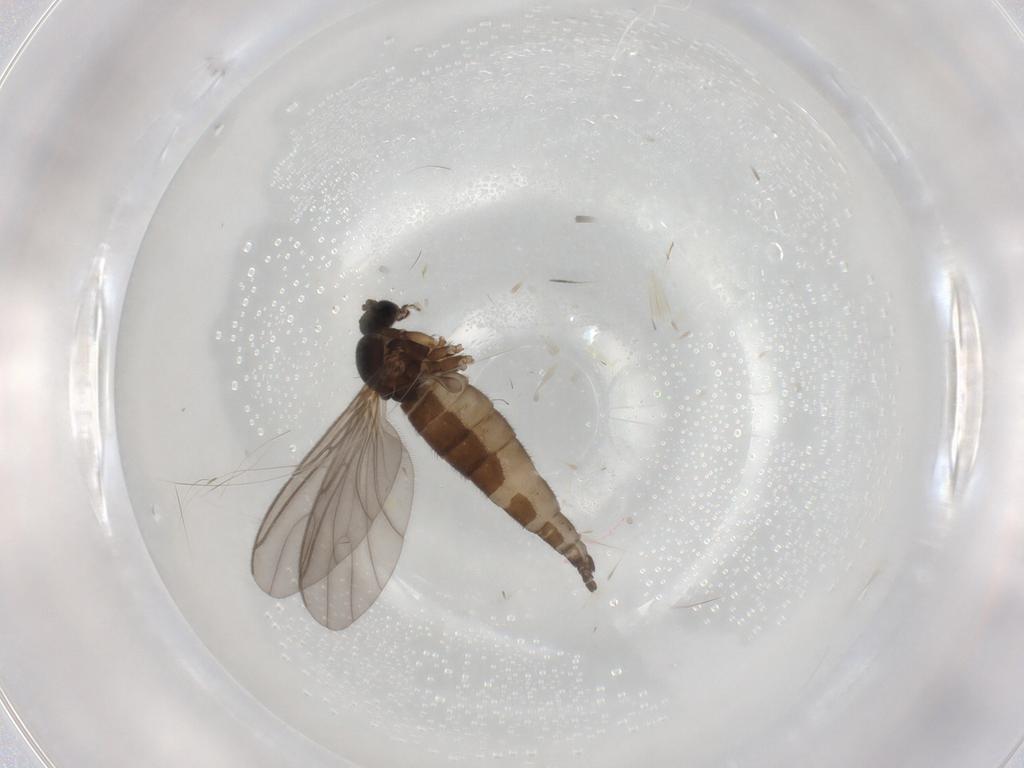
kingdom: Animalia
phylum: Arthropoda
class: Insecta
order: Diptera
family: Sciaridae
